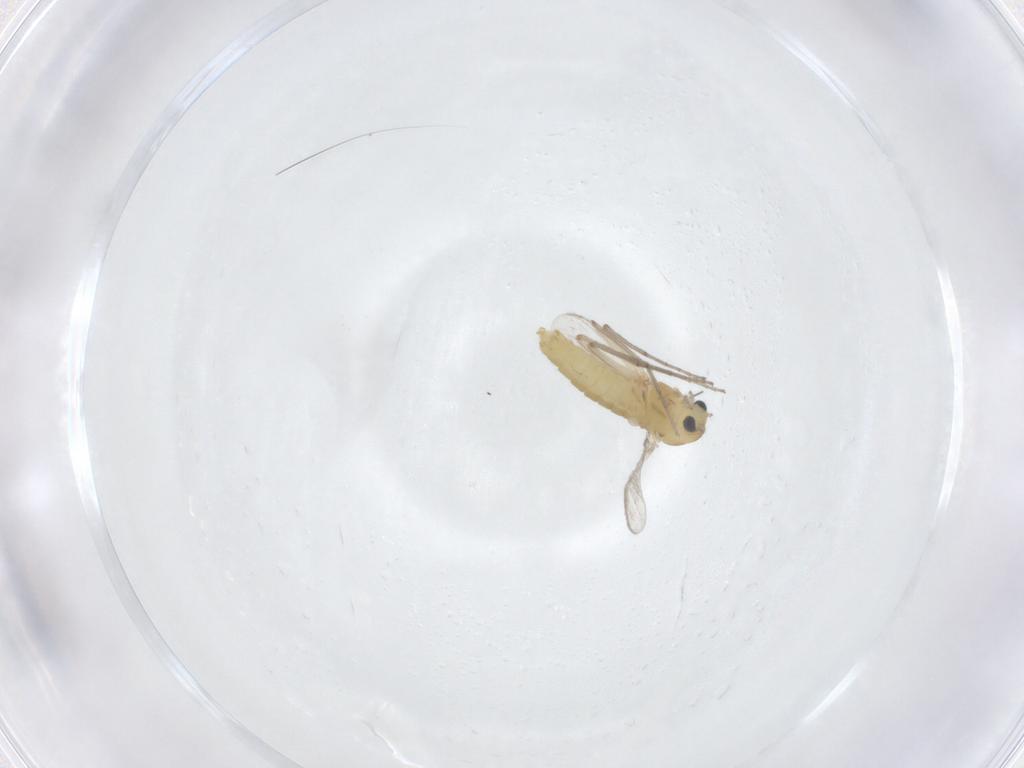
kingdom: Animalia
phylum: Arthropoda
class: Insecta
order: Diptera
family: Chironomidae
